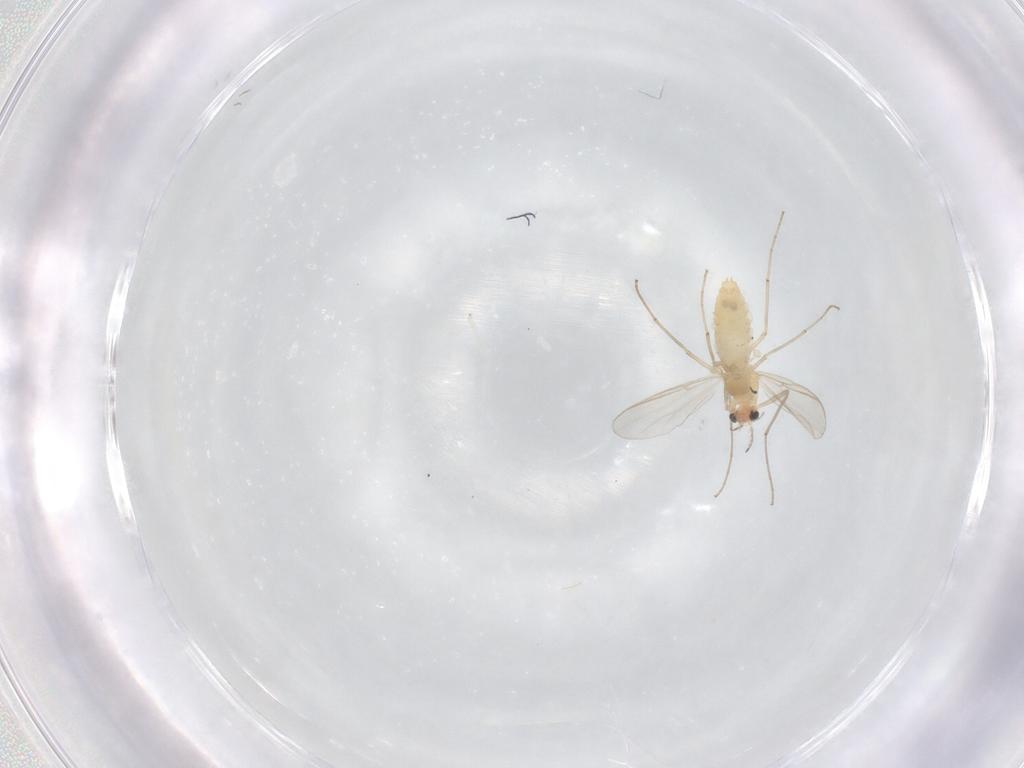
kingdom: Animalia
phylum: Arthropoda
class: Insecta
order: Diptera
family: Chironomidae
